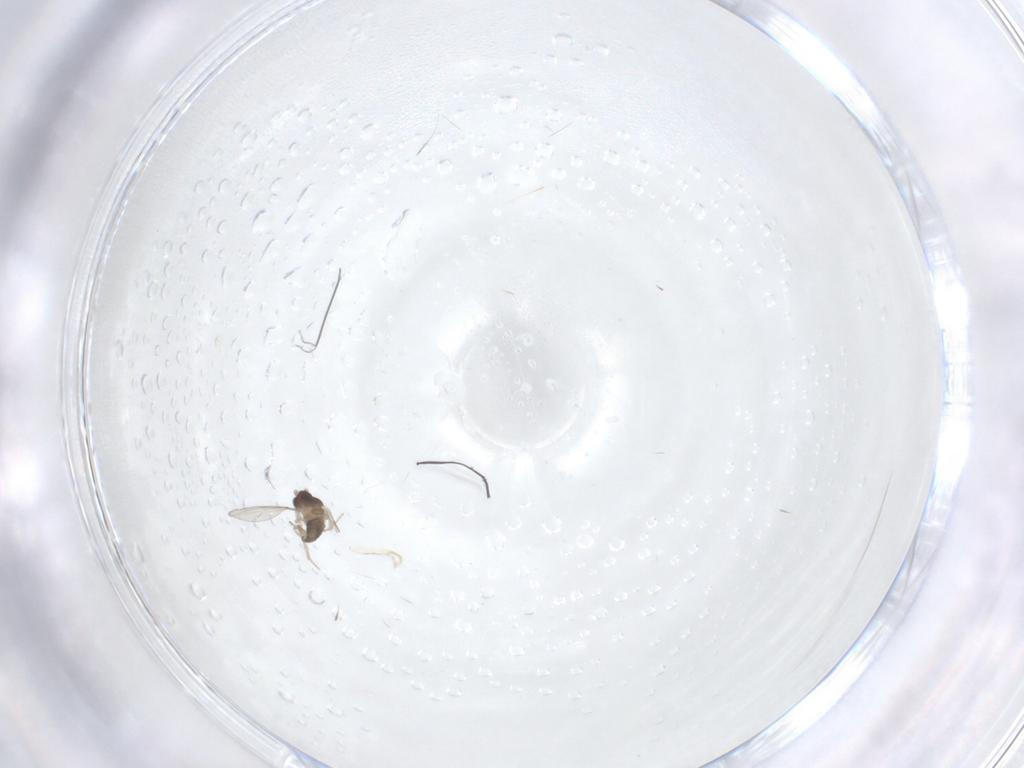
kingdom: Animalia
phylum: Arthropoda
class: Insecta
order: Diptera
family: Cecidomyiidae
